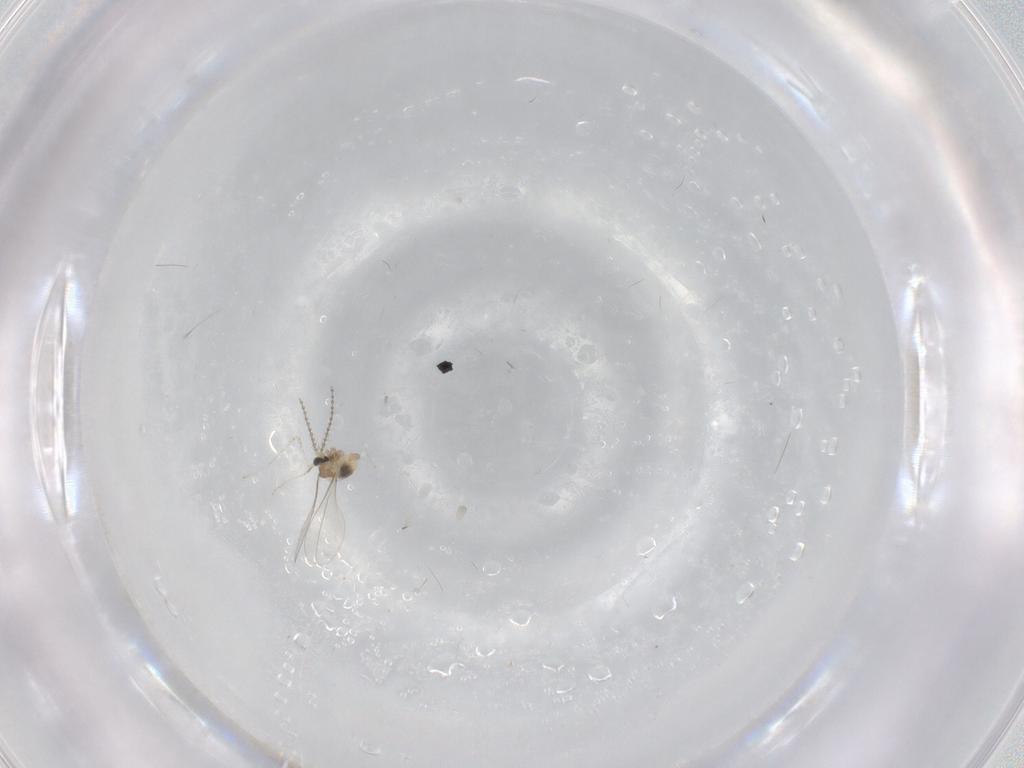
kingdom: Animalia
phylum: Arthropoda
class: Insecta
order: Diptera
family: Cecidomyiidae
